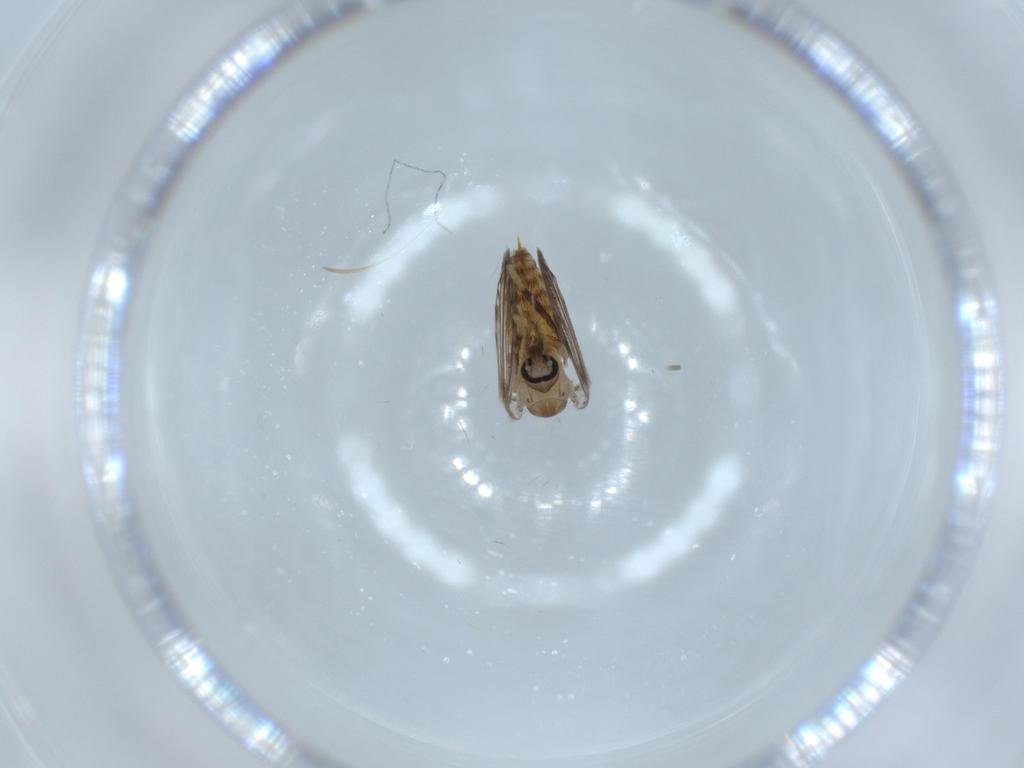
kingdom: Animalia
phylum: Arthropoda
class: Insecta
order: Diptera
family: Psychodidae
